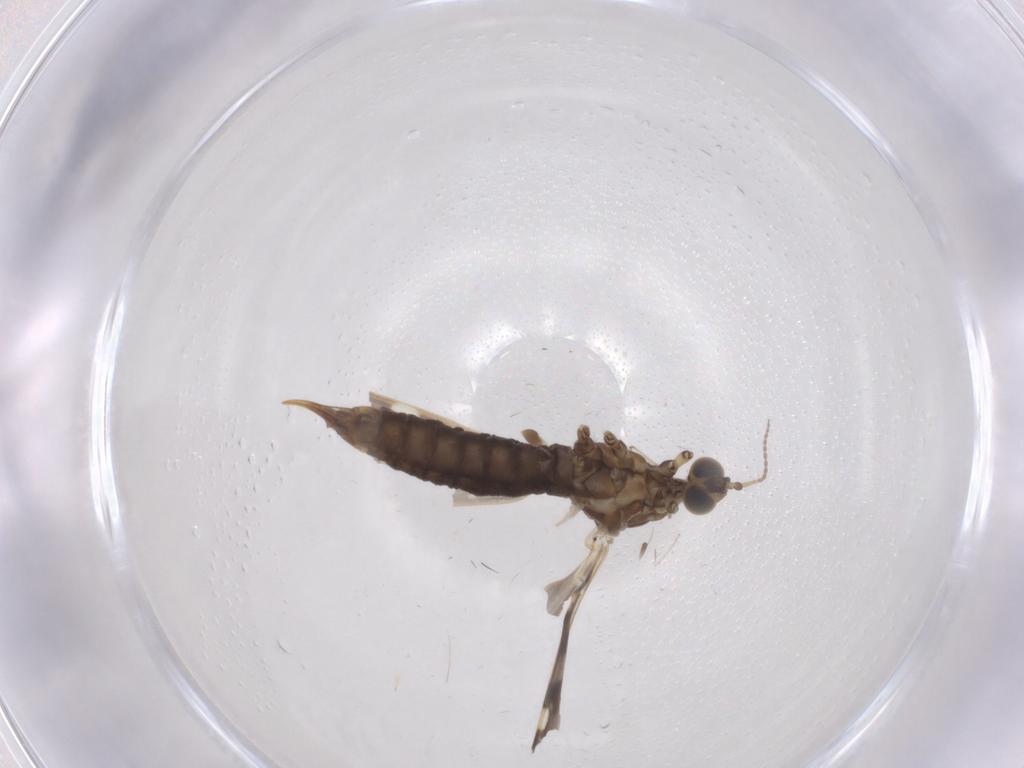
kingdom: Animalia
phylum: Arthropoda
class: Insecta
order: Diptera
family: Limoniidae
